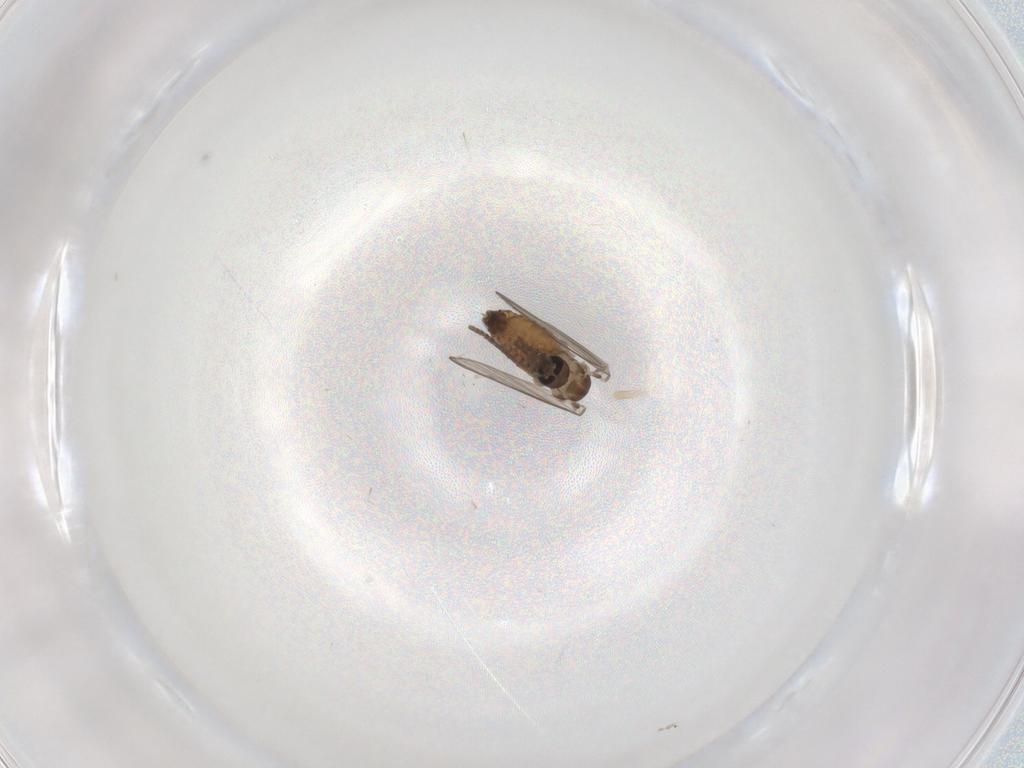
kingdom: Animalia
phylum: Arthropoda
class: Insecta
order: Diptera
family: Psychodidae
